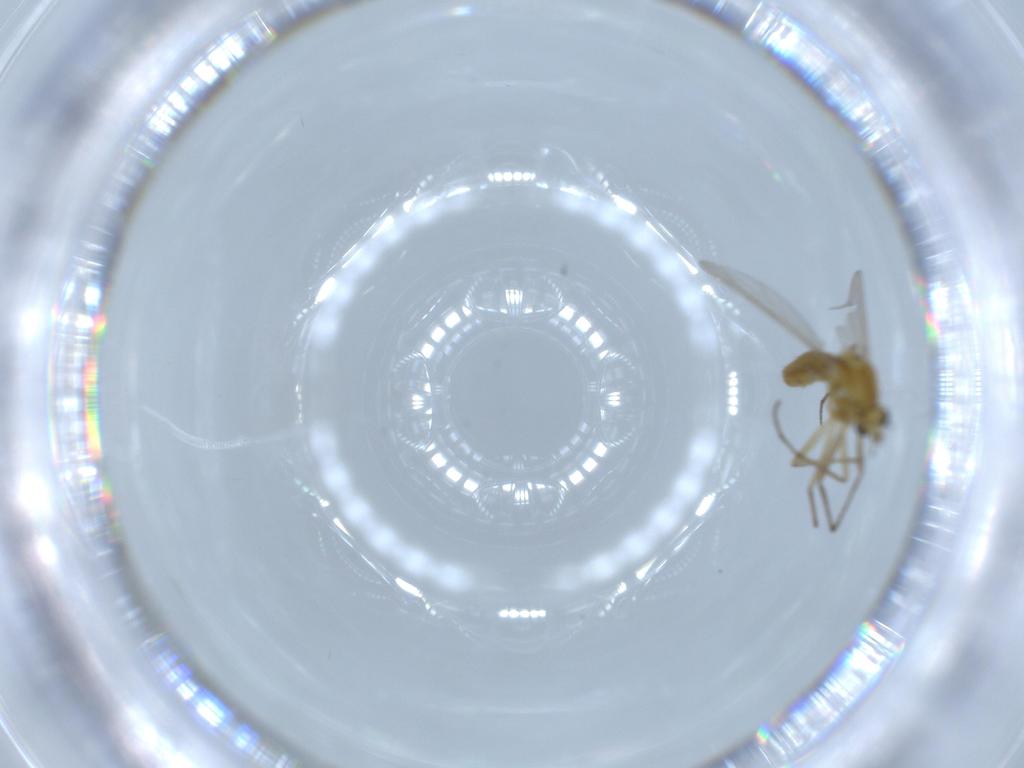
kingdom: Animalia
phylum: Arthropoda
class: Insecta
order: Diptera
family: Chironomidae
